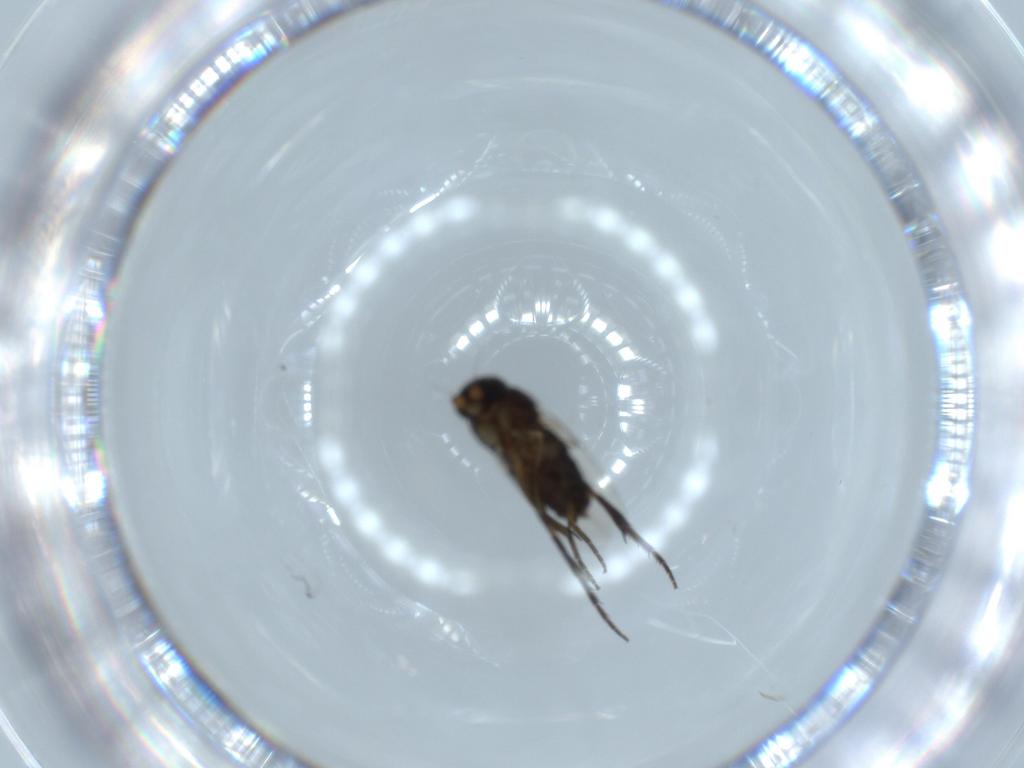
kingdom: Animalia
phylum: Arthropoda
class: Insecta
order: Diptera
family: Phoridae
